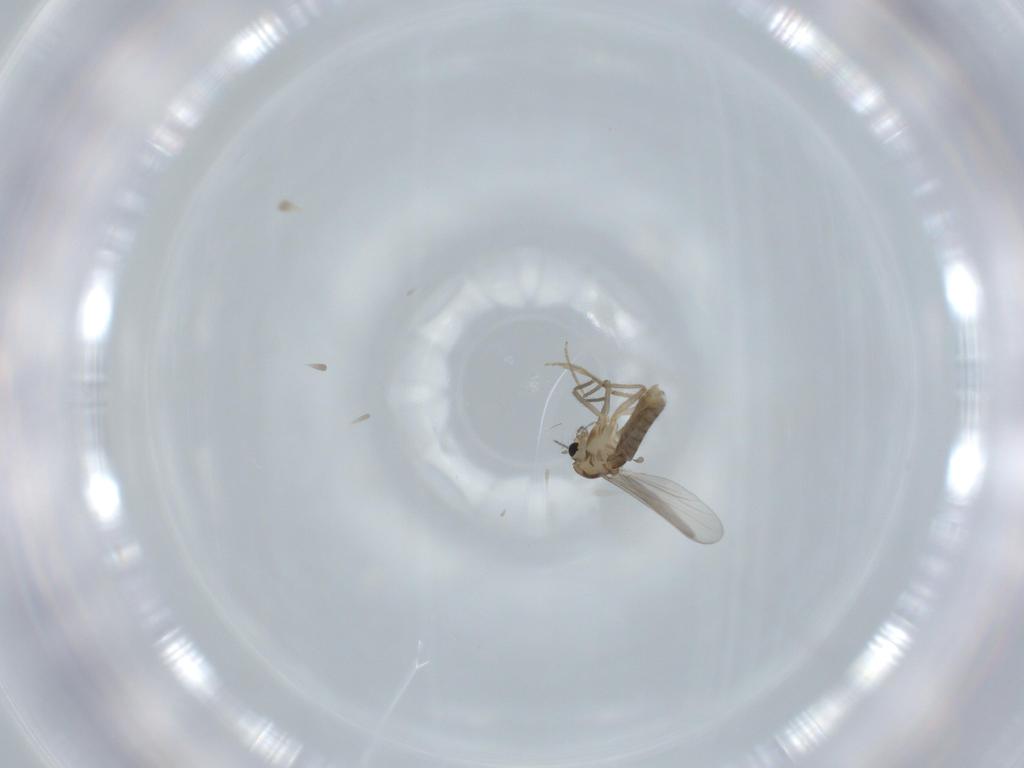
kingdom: Animalia
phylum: Arthropoda
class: Insecta
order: Diptera
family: Chironomidae
